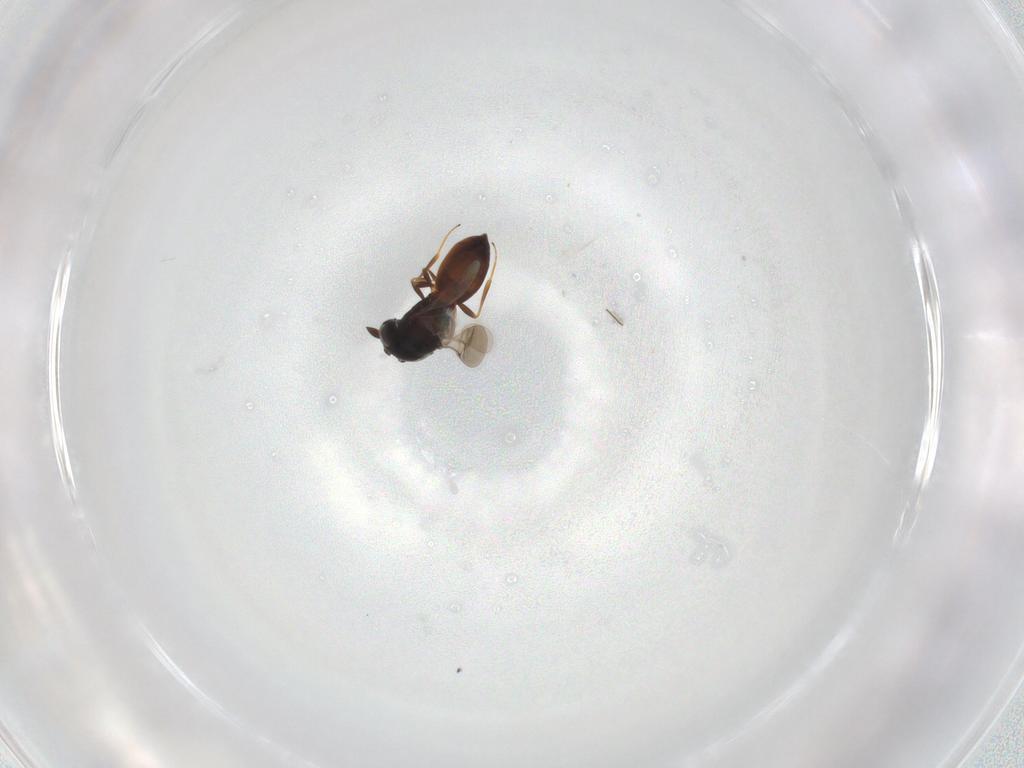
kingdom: Animalia
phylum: Arthropoda
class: Insecta
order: Hymenoptera
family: Scelionidae
